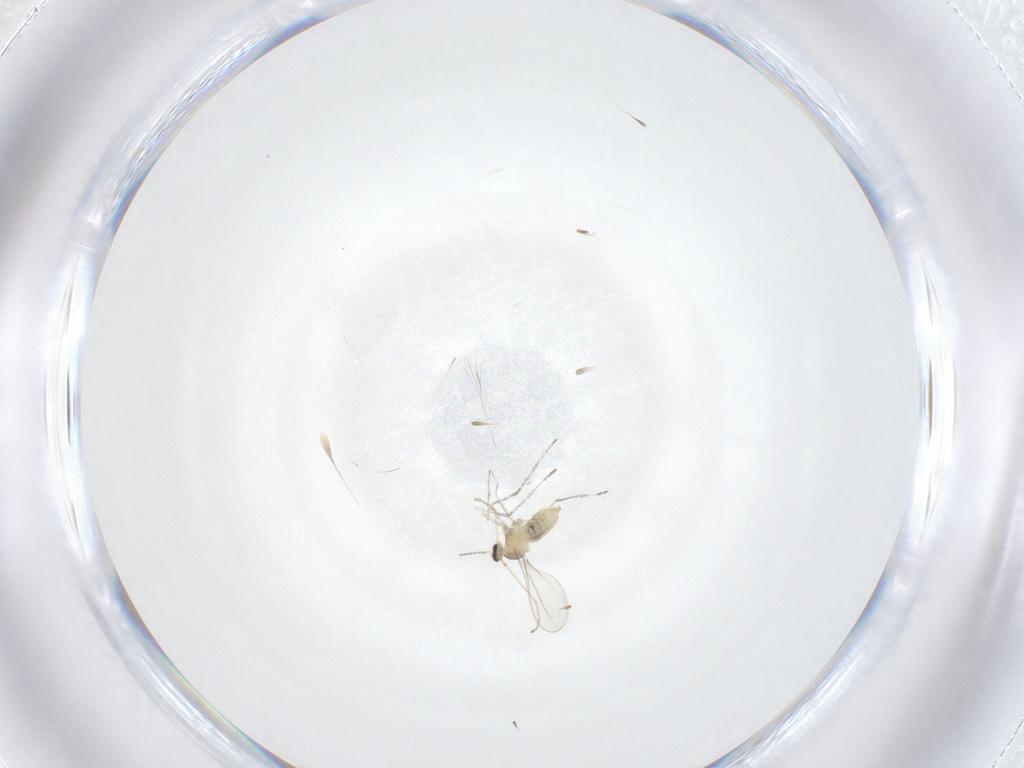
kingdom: Animalia
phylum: Arthropoda
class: Insecta
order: Diptera
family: Cecidomyiidae
